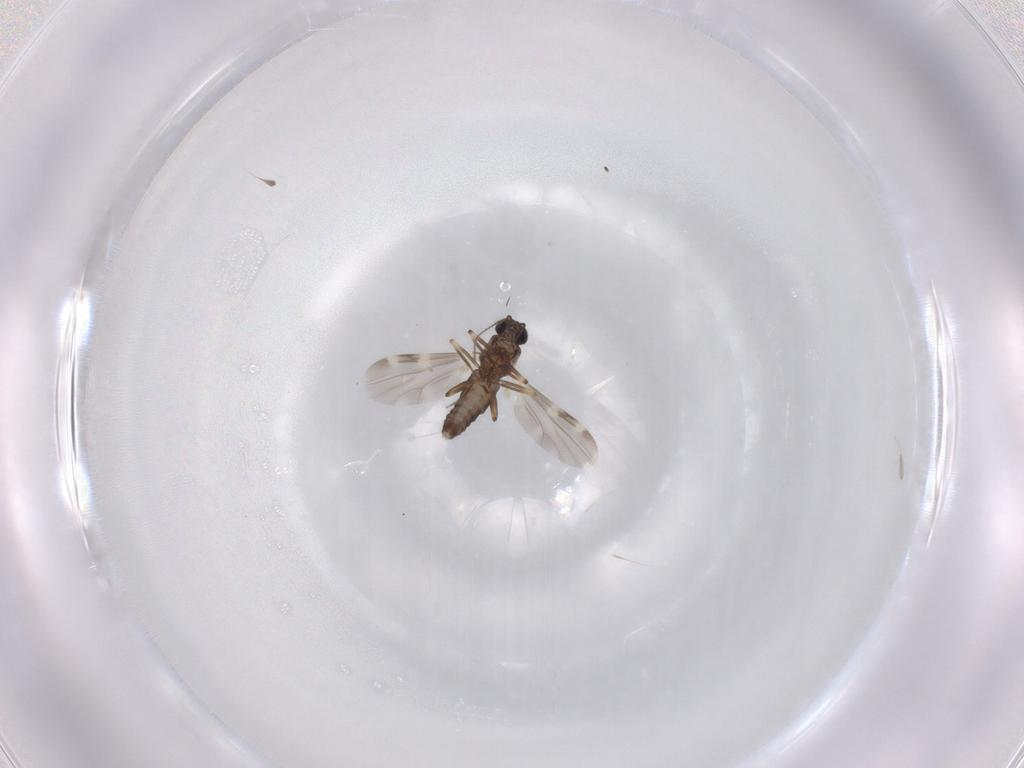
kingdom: Animalia
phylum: Arthropoda
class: Insecta
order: Diptera
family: Ceratopogonidae
